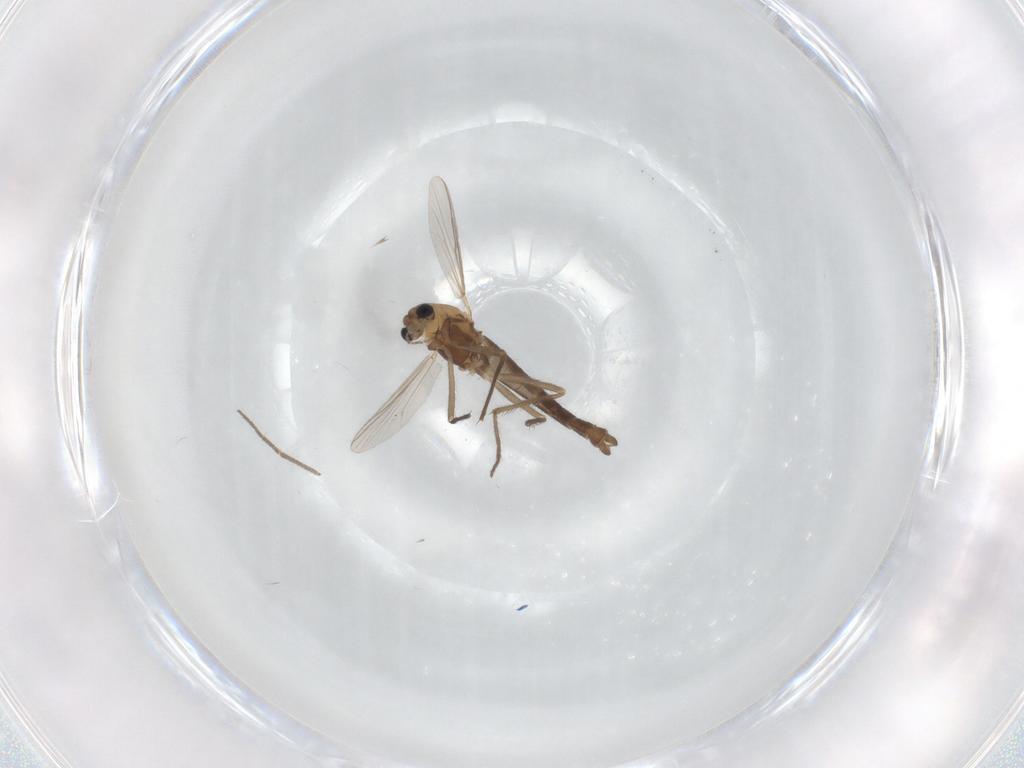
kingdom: Animalia
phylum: Arthropoda
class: Insecta
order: Diptera
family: Chironomidae
